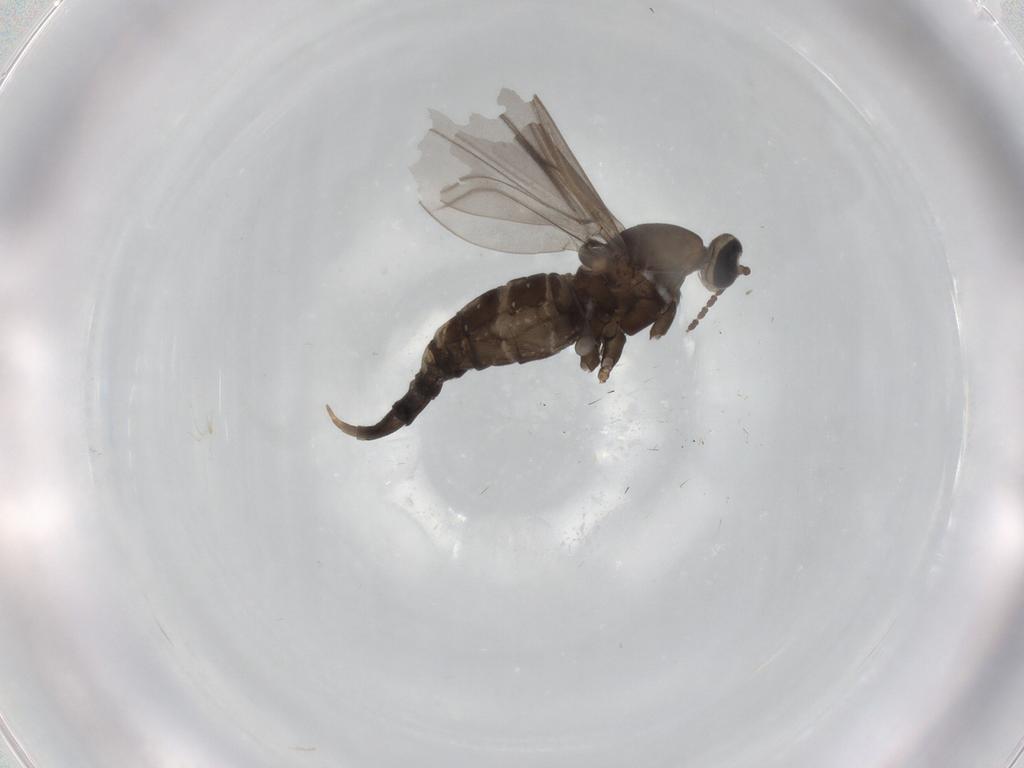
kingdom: Animalia
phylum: Arthropoda
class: Insecta
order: Diptera
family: Cecidomyiidae
